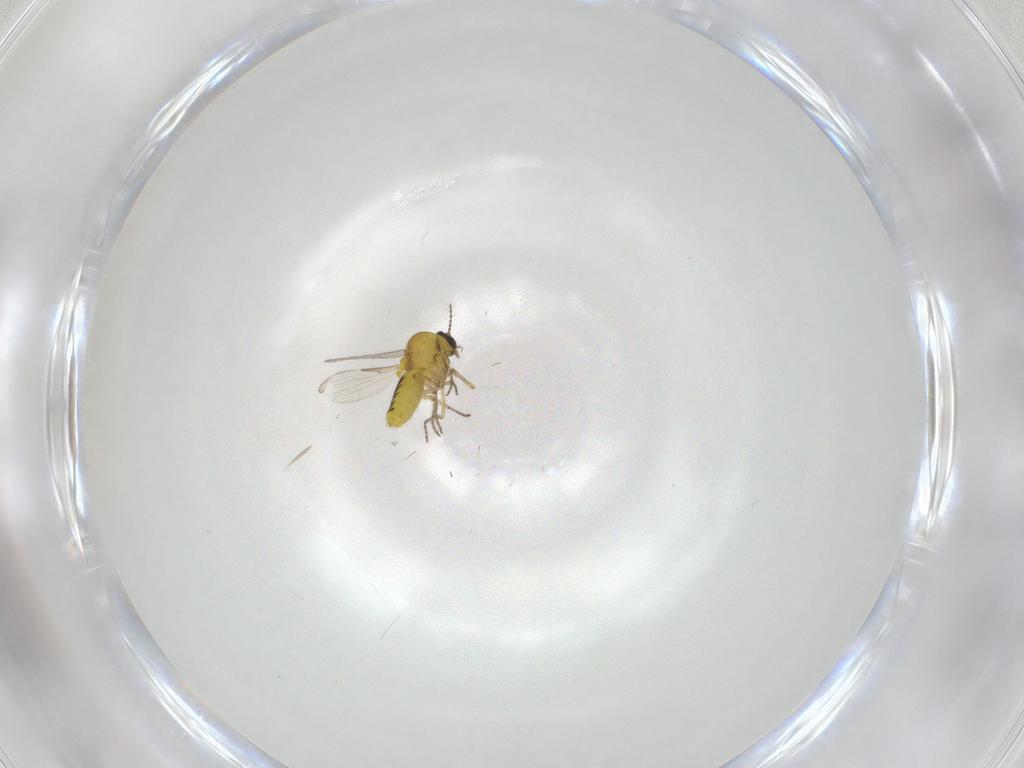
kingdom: Animalia
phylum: Arthropoda
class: Insecta
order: Diptera
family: Ceratopogonidae
